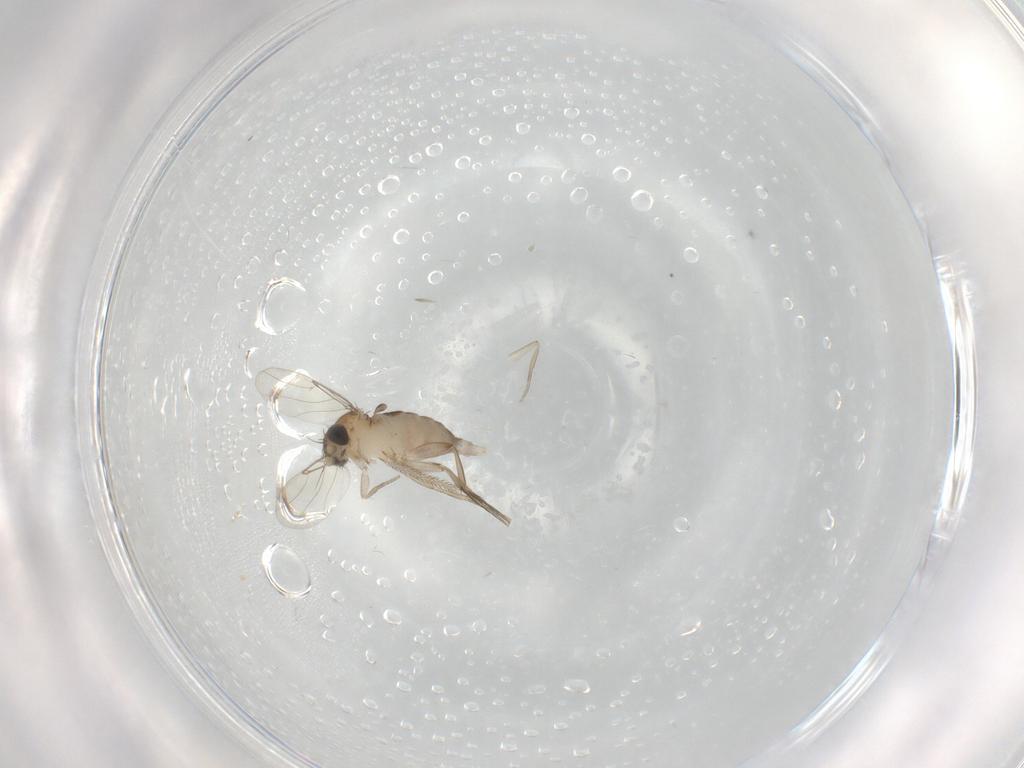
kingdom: Animalia
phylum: Arthropoda
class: Insecta
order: Diptera
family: Phoridae
